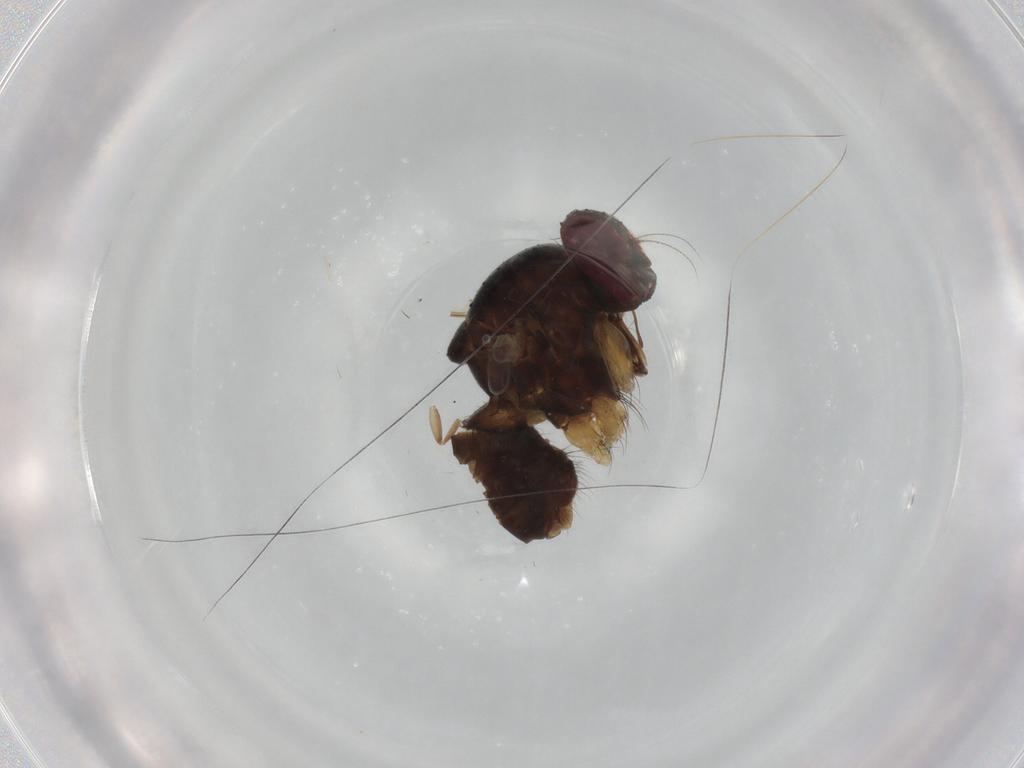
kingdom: Animalia
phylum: Arthropoda
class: Insecta
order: Diptera
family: Muscidae
